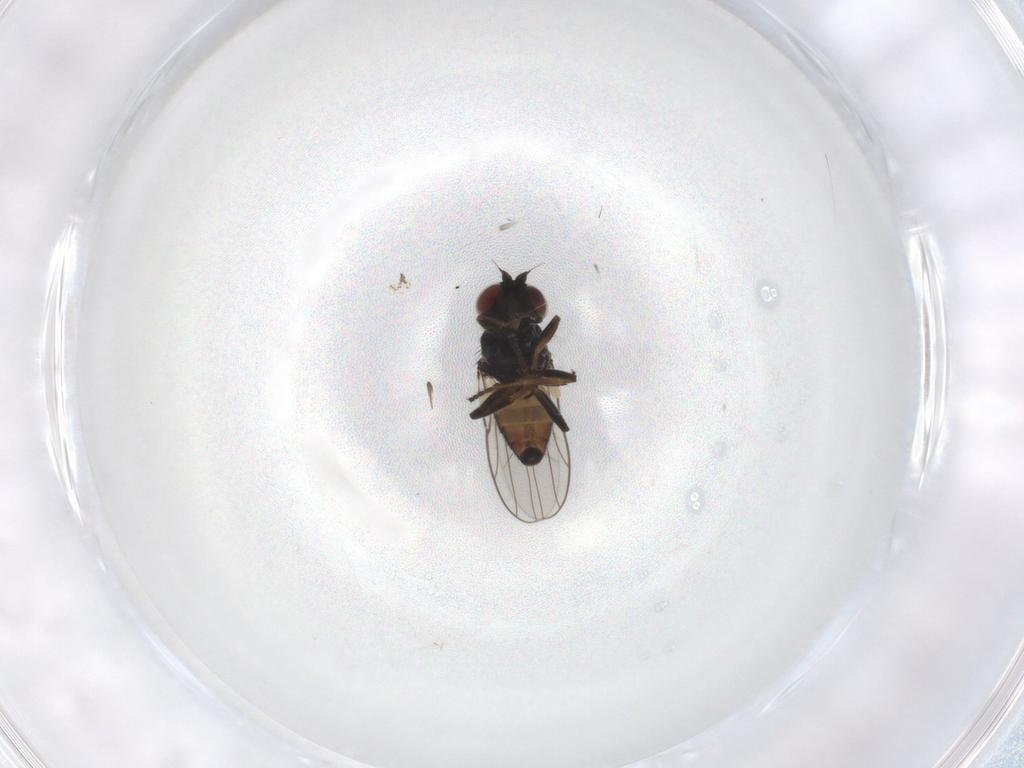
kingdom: Animalia
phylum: Arthropoda
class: Insecta
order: Diptera
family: Chloropidae
